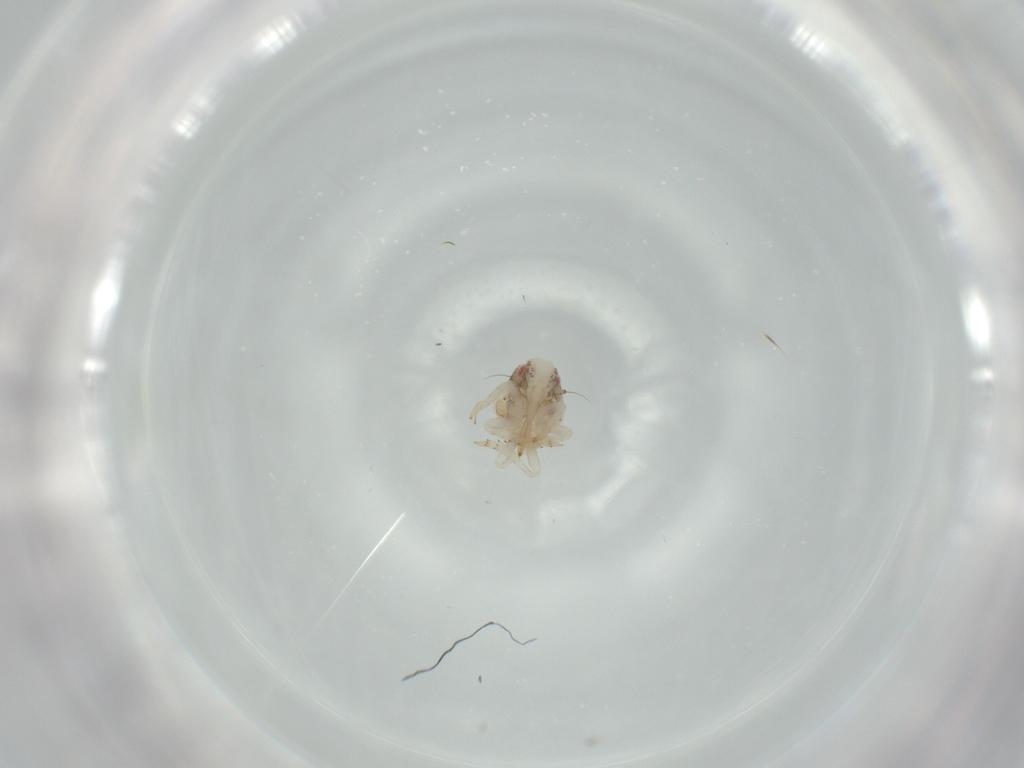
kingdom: Animalia
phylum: Arthropoda
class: Insecta
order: Hemiptera
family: Acanaloniidae
